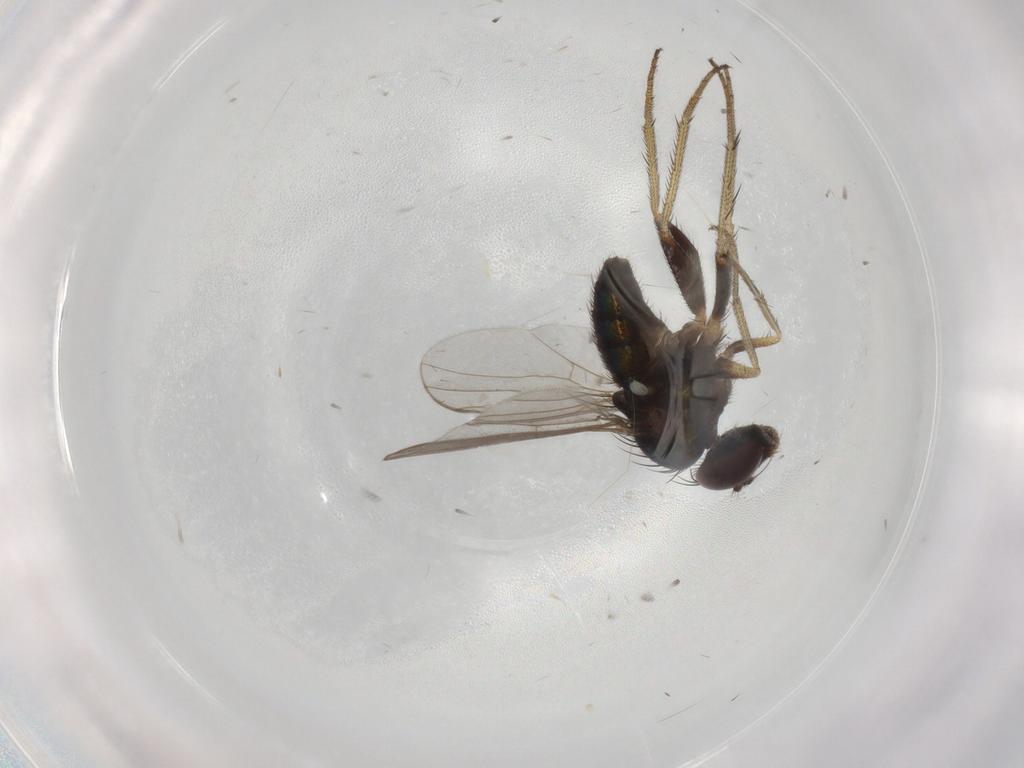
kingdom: Animalia
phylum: Arthropoda
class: Insecta
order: Diptera
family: Dolichopodidae
